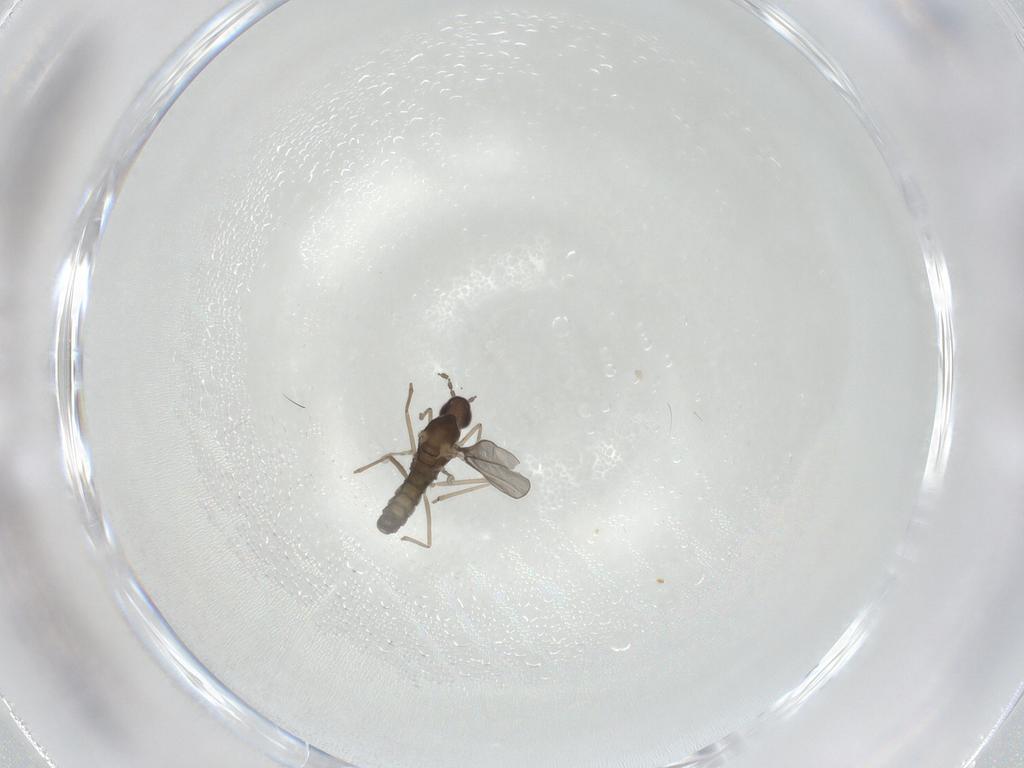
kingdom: Animalia
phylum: Arthropoda
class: Insecta
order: Diptera
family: Cecidomyiidae
